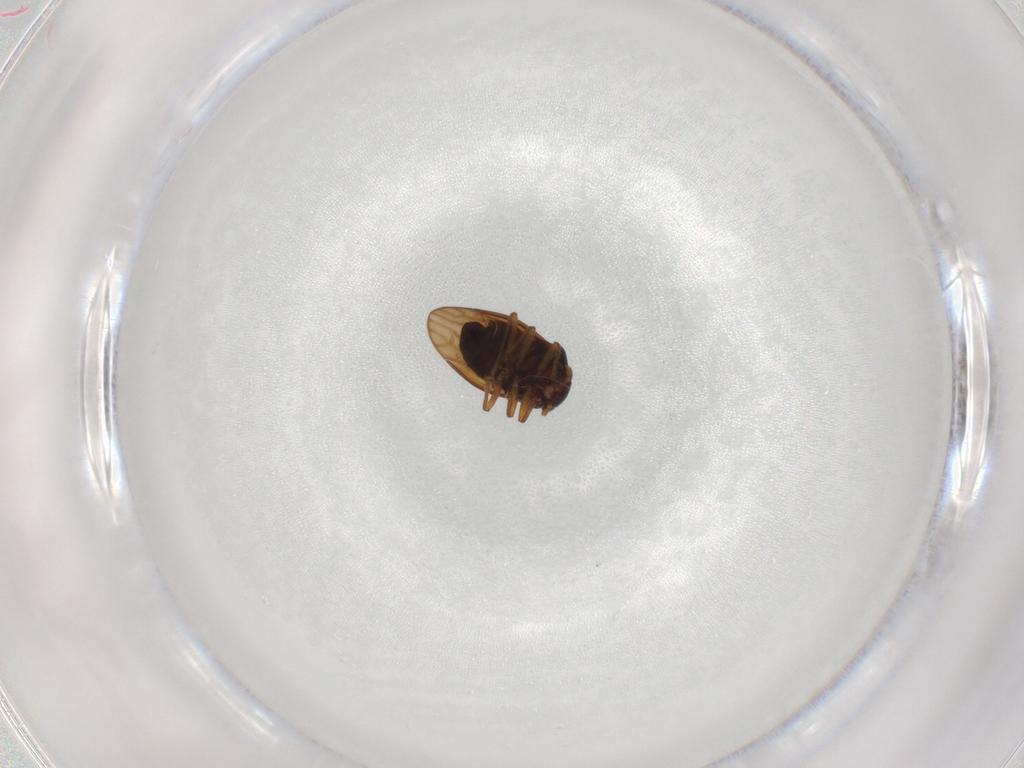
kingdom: Animalia
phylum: Arthropoda
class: Insecta
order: Hemiptera
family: Schizopteridae
